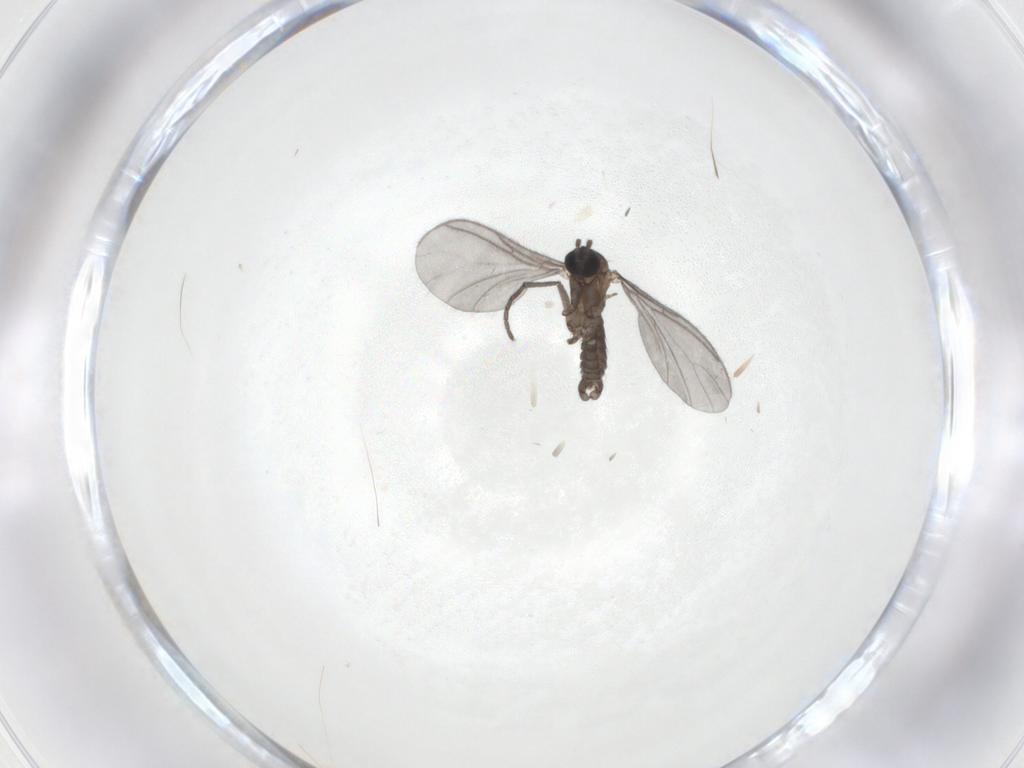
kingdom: Animalia
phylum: Arthropoda
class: Insecta
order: Diptera
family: Sciaridae
